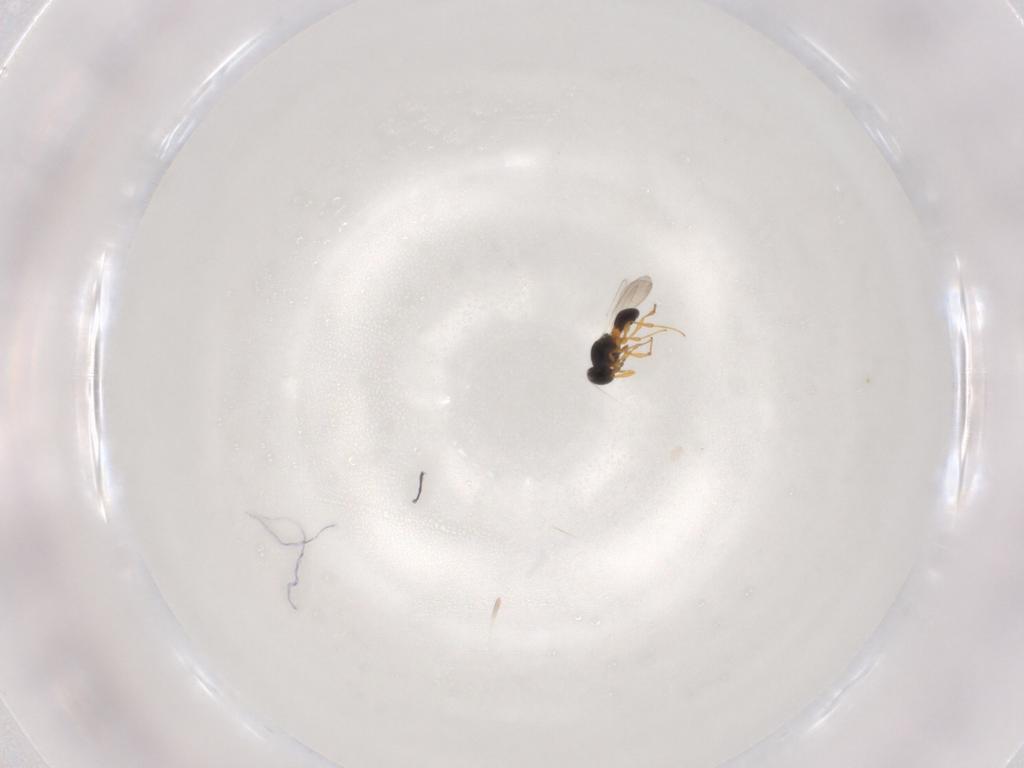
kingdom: Animalia
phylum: Arthropoda
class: Insecta
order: Hymenoptera
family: Platygastridae
